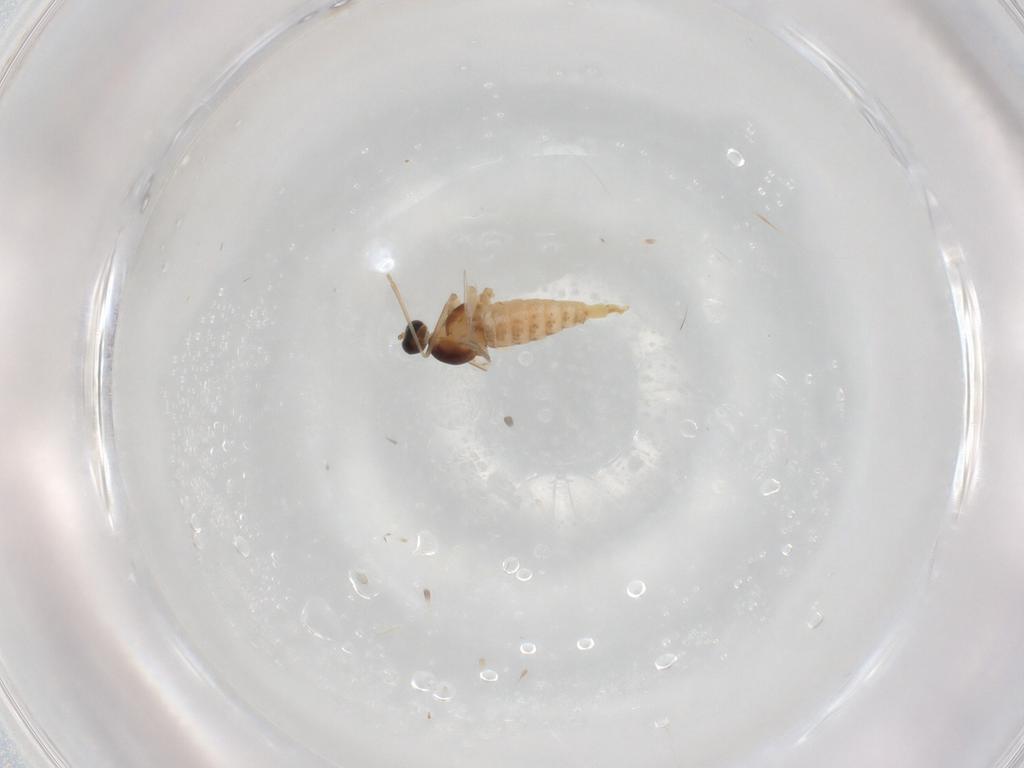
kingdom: Animalia
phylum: Arthropoda
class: Insecta
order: Diptera
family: Cecidomyiidae
